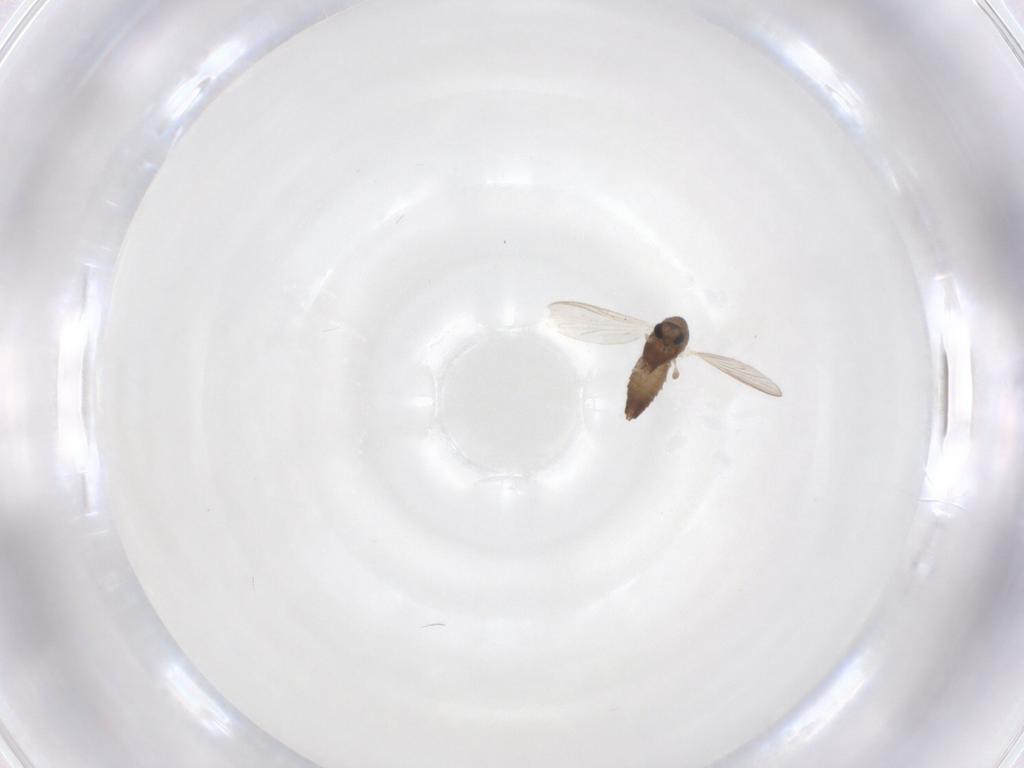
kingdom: Animalia
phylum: Arthropoda
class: Insecta
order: Diptera
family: Chironomidae
